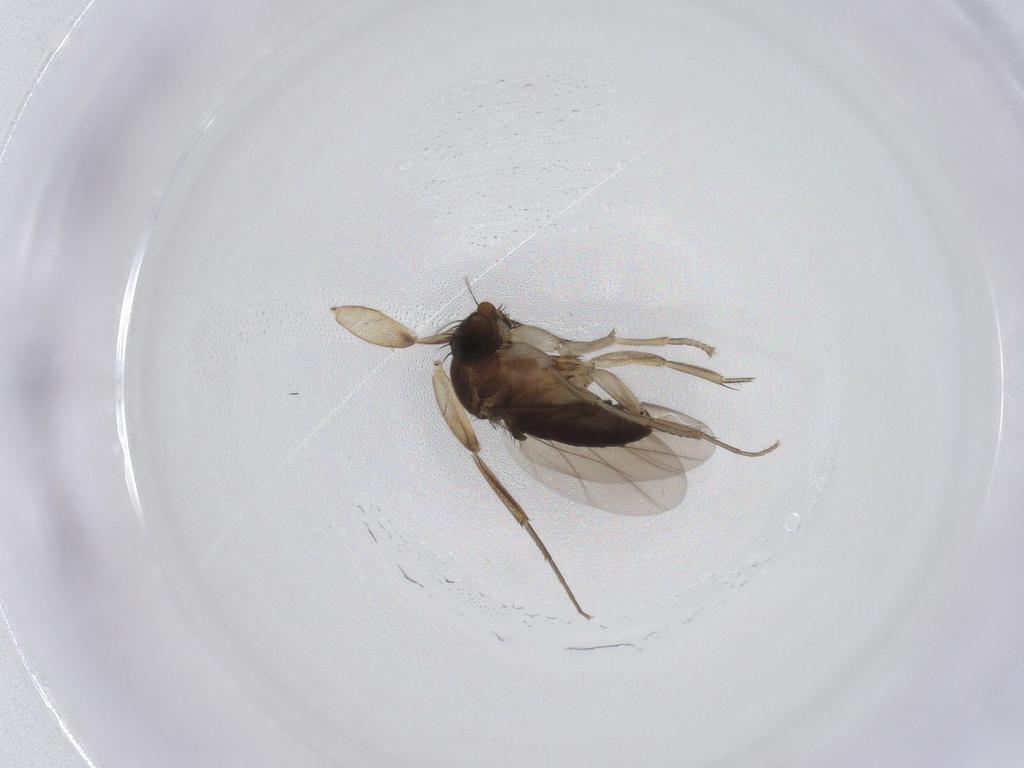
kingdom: Animalia
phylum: Arthropoda
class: Insecta
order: Diptera
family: Phoridae
